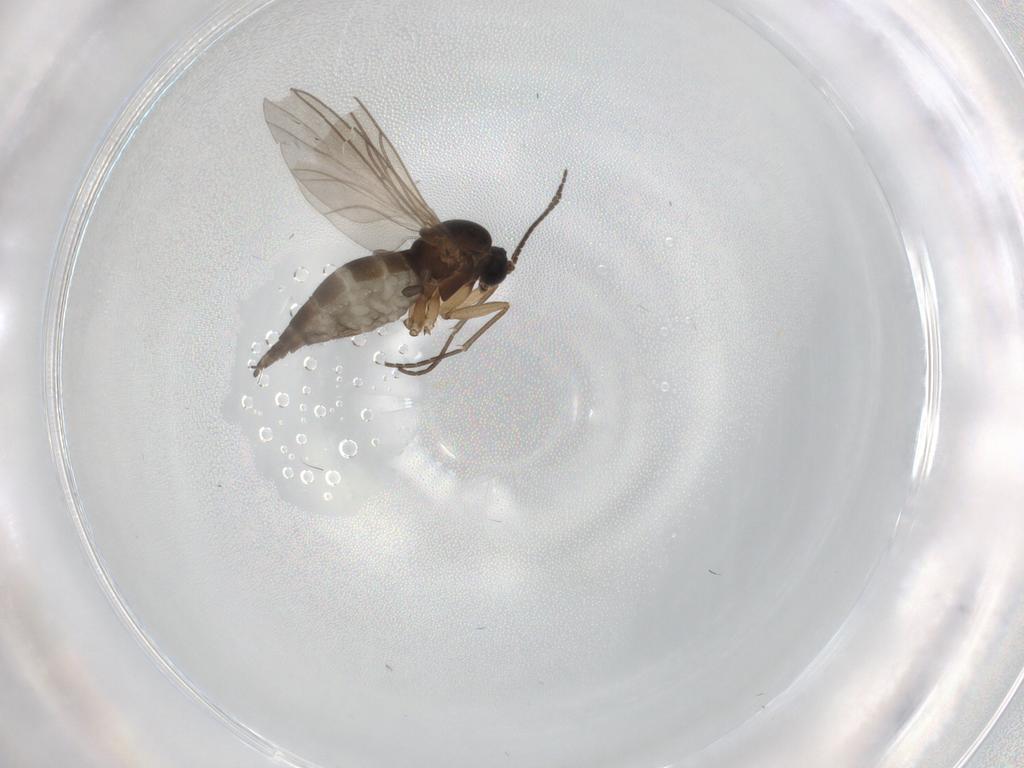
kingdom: Animalia
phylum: Arthropoda
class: Insecta
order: Diptera
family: Sciaridae
